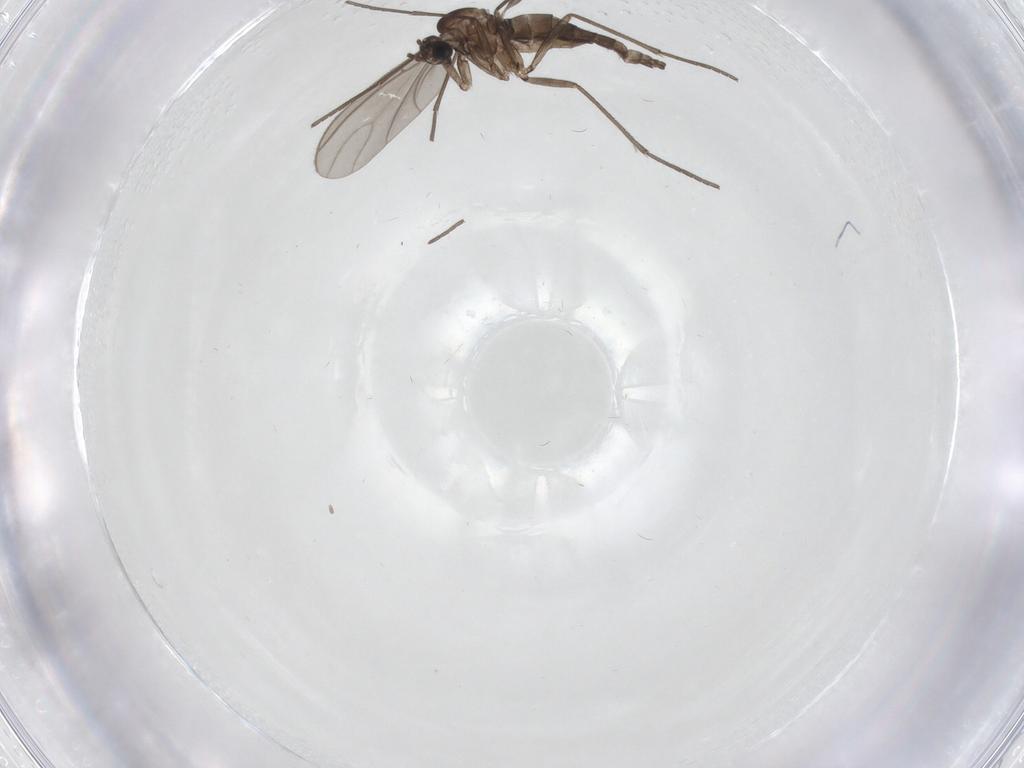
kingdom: Animalia
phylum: Arthropoda
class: Insecta
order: Diptera
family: Sciaridae
